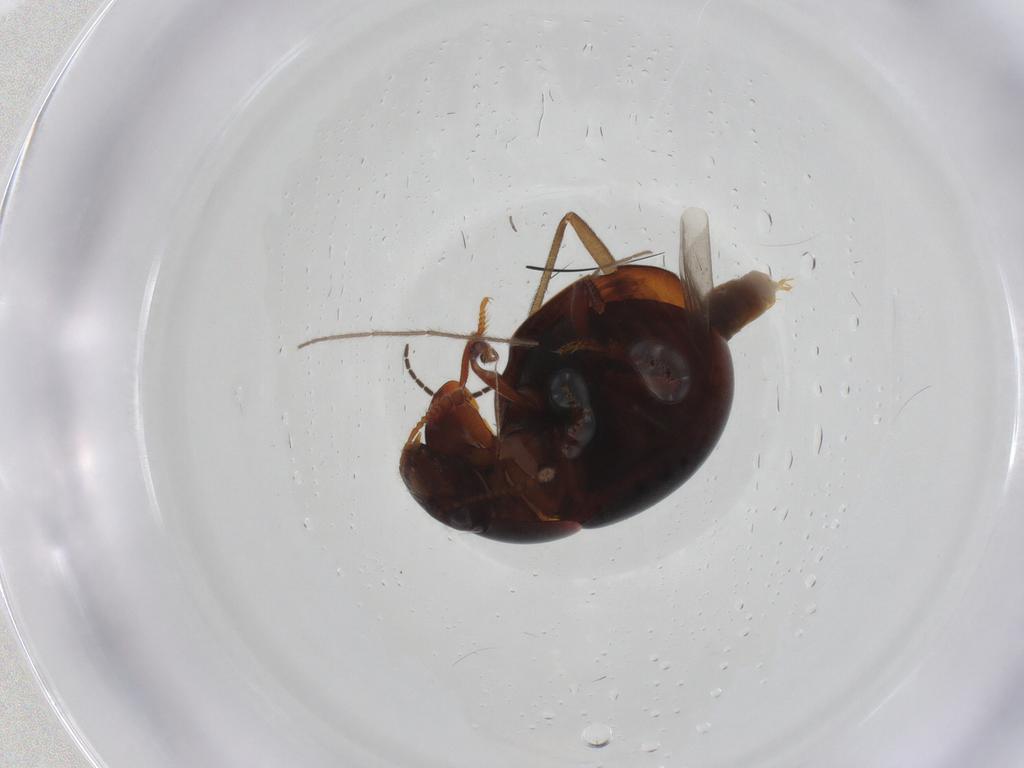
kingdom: Animalia
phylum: Arthropoda
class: Insecta
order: Coleoptera
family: Leiodidae
